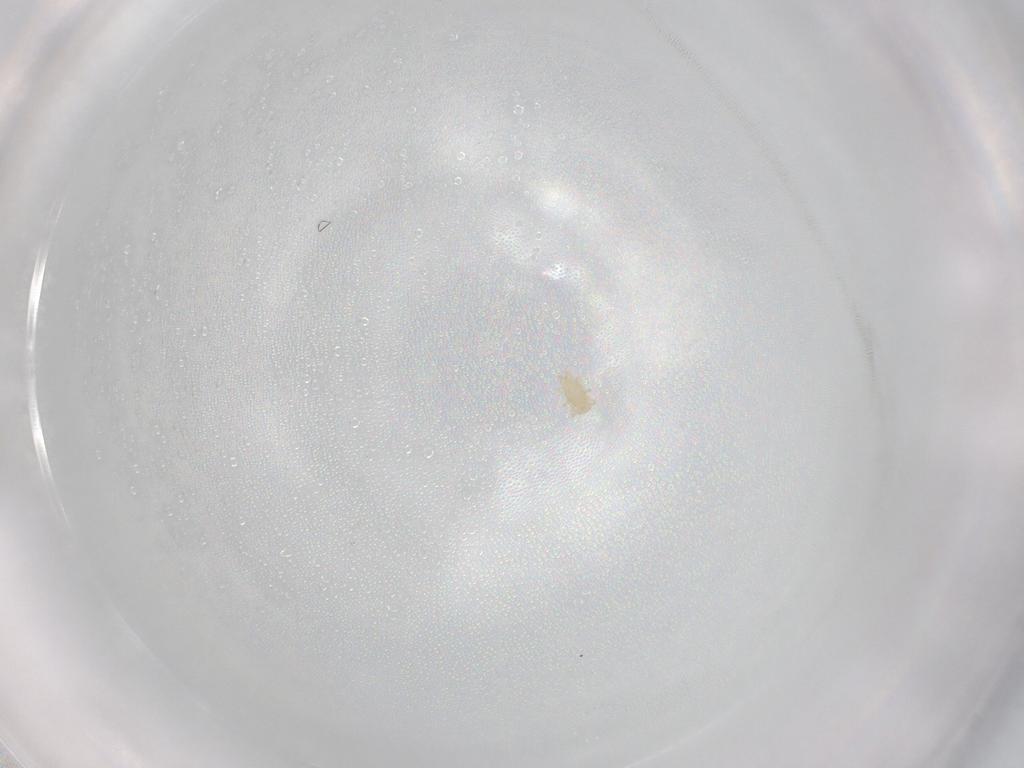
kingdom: Animalia
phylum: Arthropoda
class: Arachnida
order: Mesostigmata
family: Ascidae
